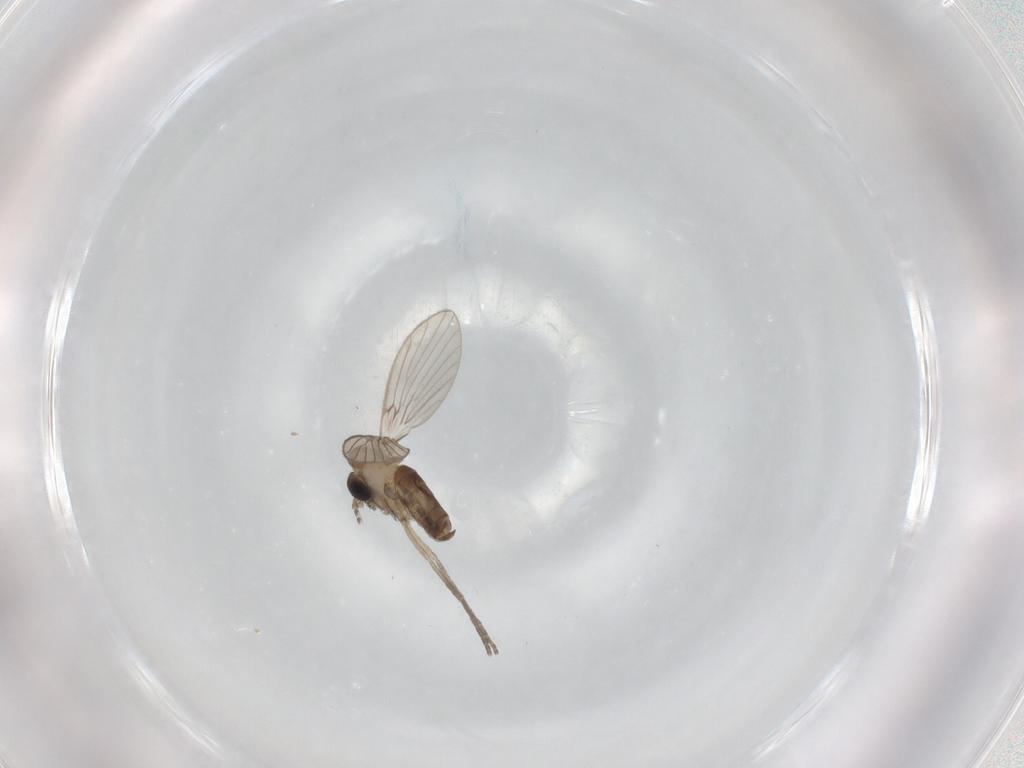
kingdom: Animalia
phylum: Arthropoda
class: Insecta
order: Diptera
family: Psychodidae
